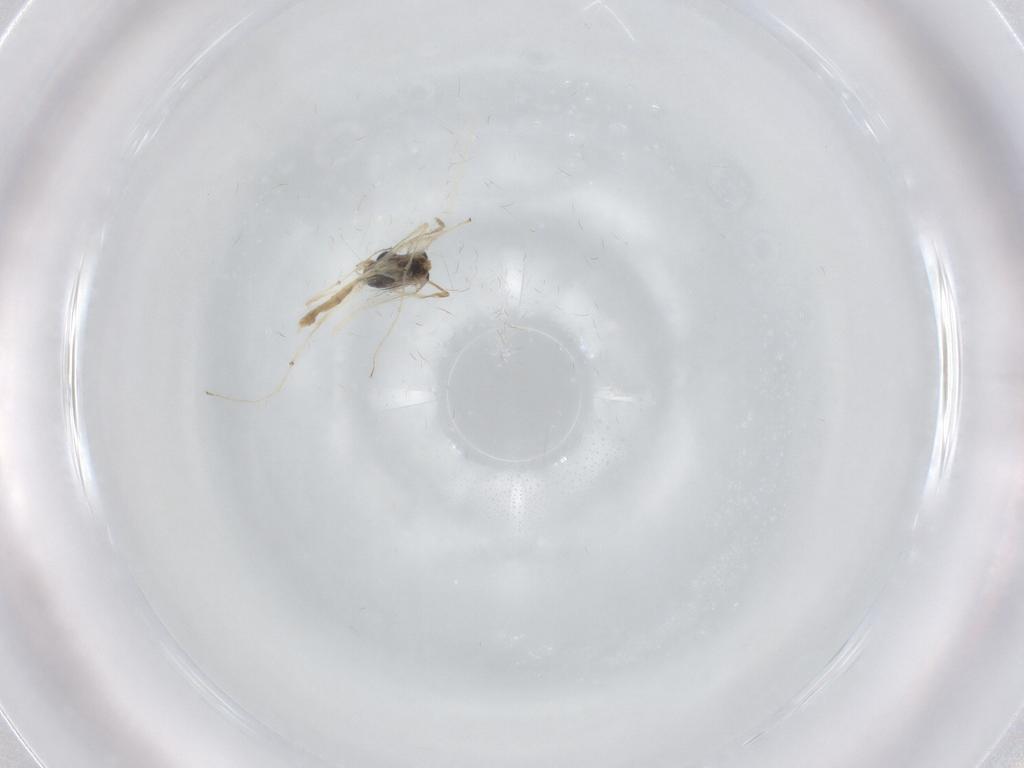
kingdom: Animalia
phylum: Arthropoda
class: Insecta
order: Diptera
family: Chironomidae
